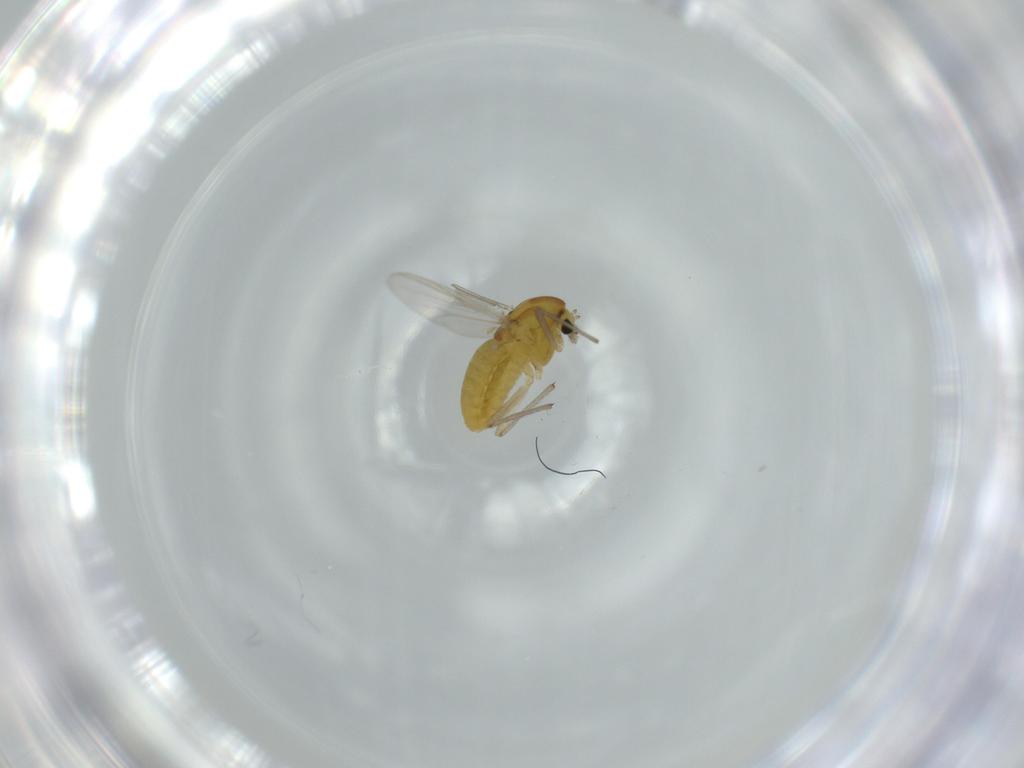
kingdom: Animalia
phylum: Arthropoda
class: Insecta
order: Diptera
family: Chironomidae
